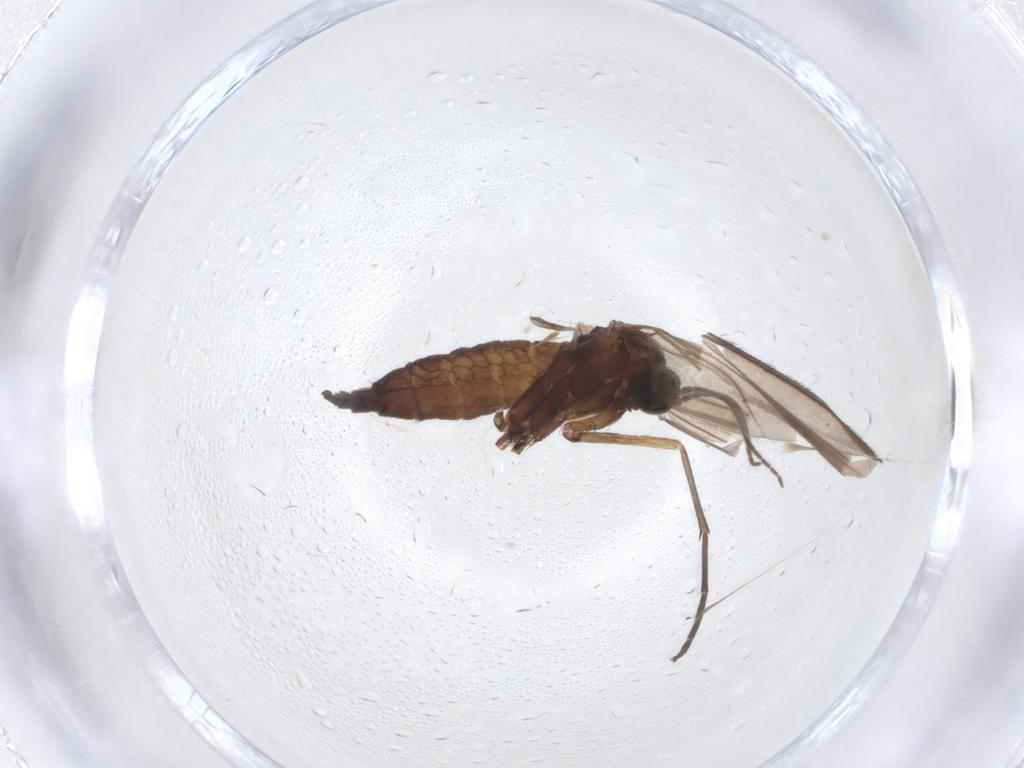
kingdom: Animalia
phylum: Arthropoda
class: Insecta
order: Diptera
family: Sciaridae
